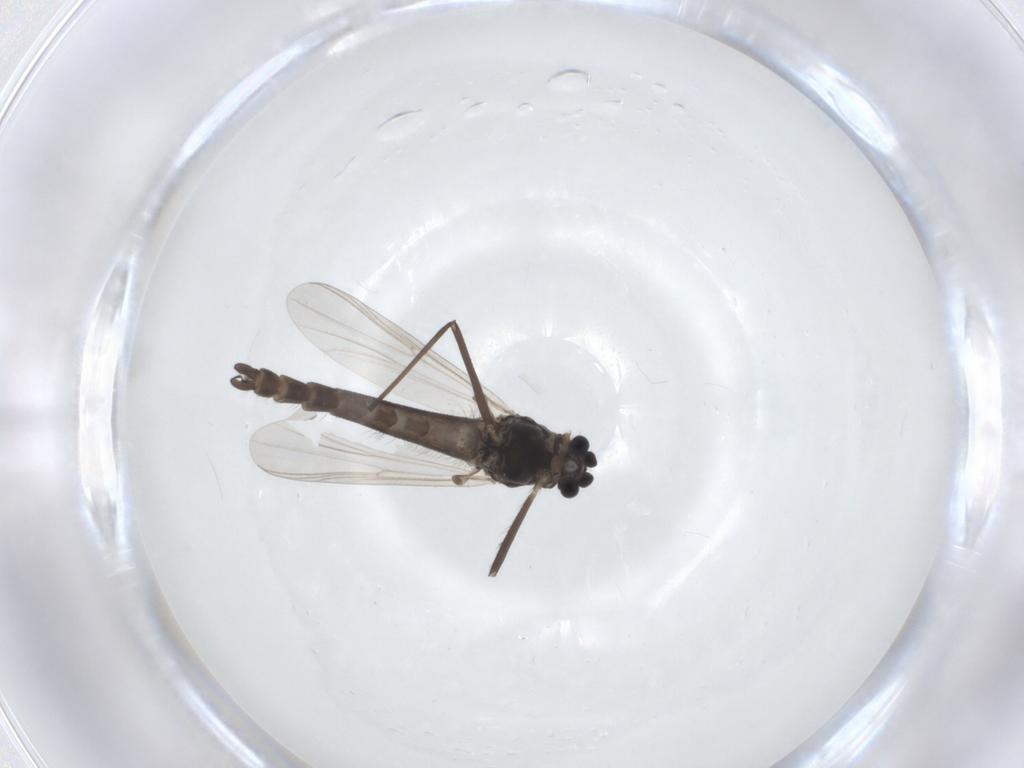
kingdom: Animalia
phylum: Arthropoda
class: Insecta
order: Diptera
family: Chironomidae
